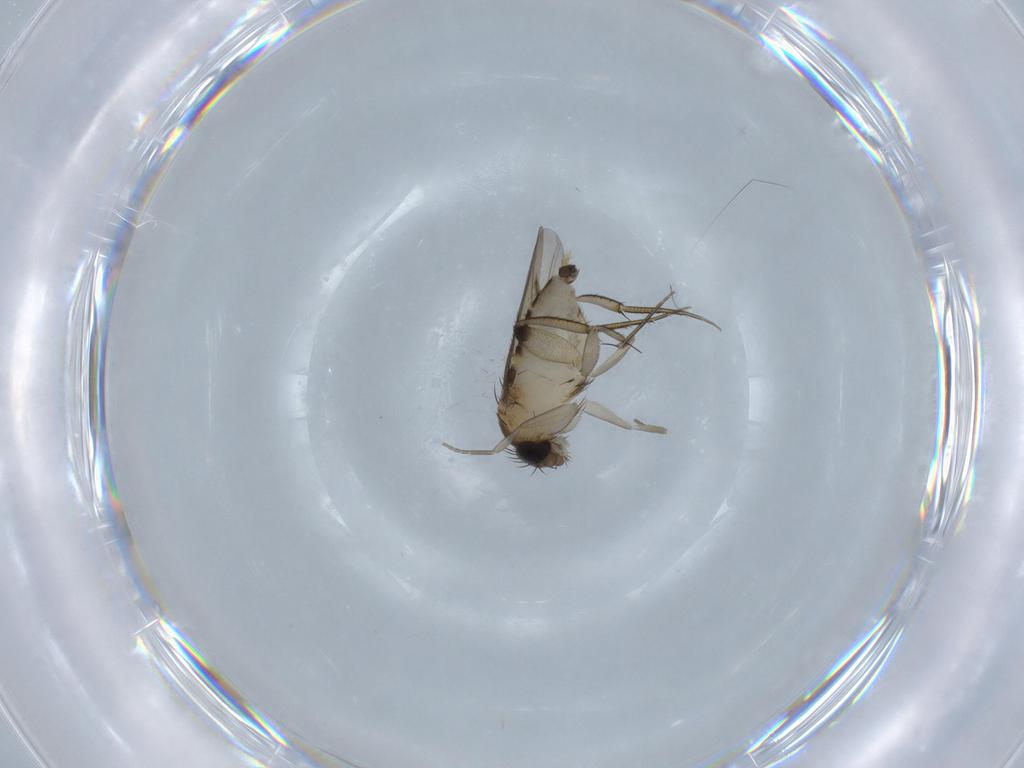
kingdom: Animalia
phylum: Arthropoda
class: Insecta
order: Diptera
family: Phoridae
